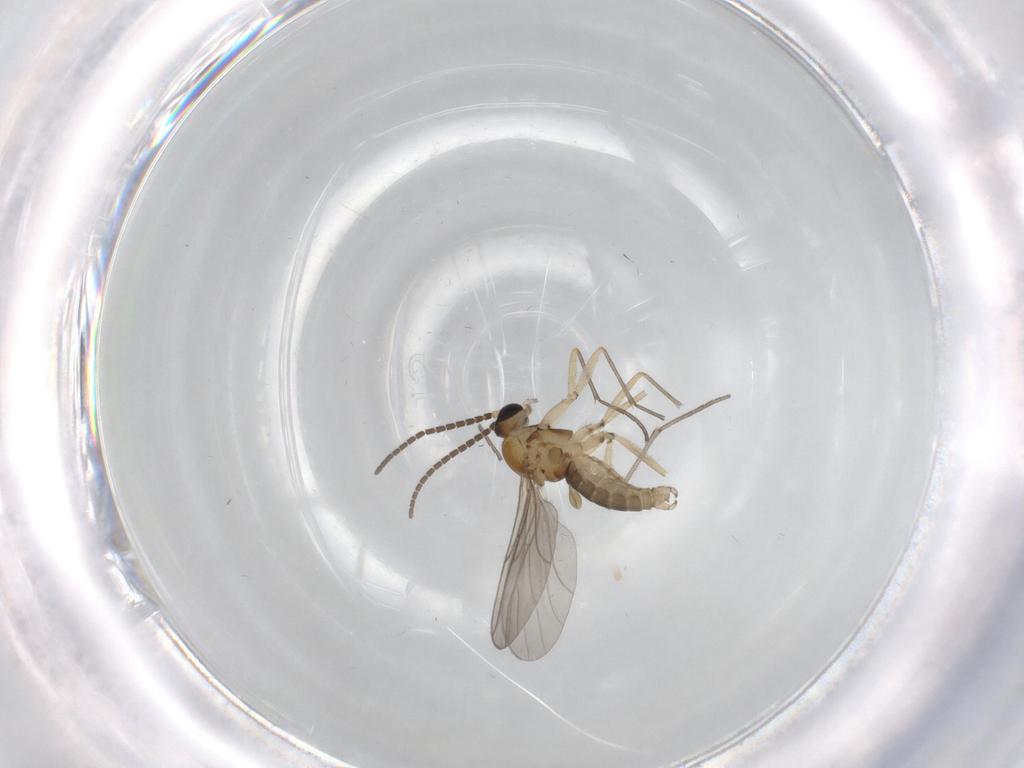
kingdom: Animalia
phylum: Arthropoda
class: Insecta
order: Diptera
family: Sciaridae
